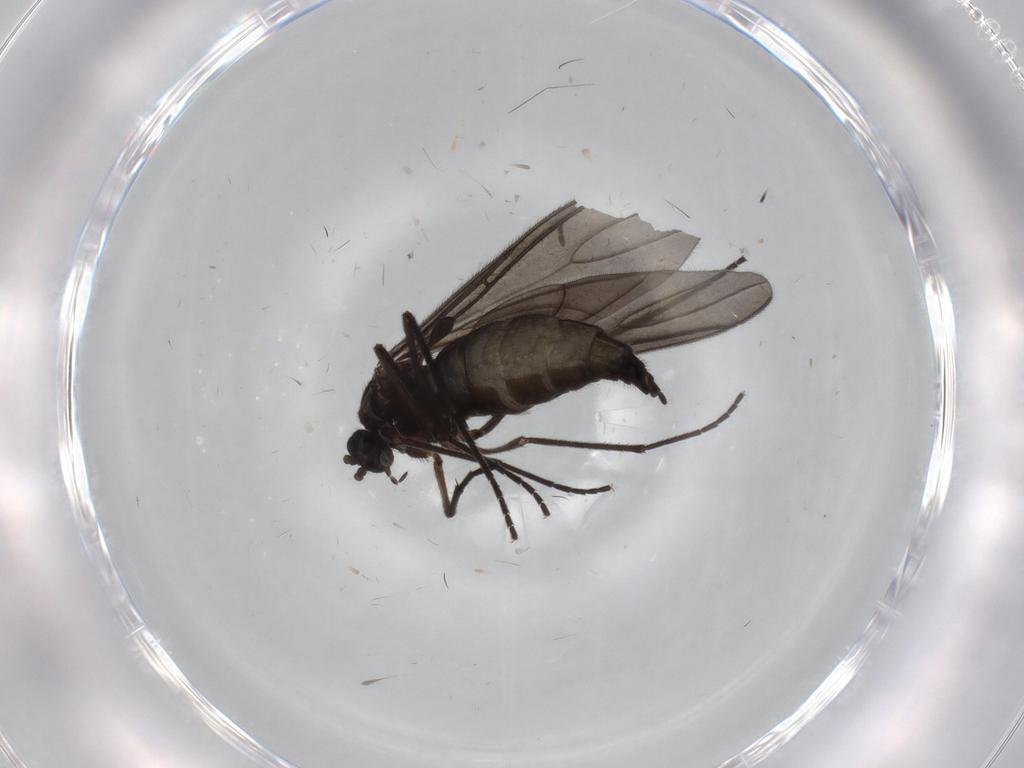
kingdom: Animalia
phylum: Arthropoda
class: Insecta
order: Diptera
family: Sciaridae
